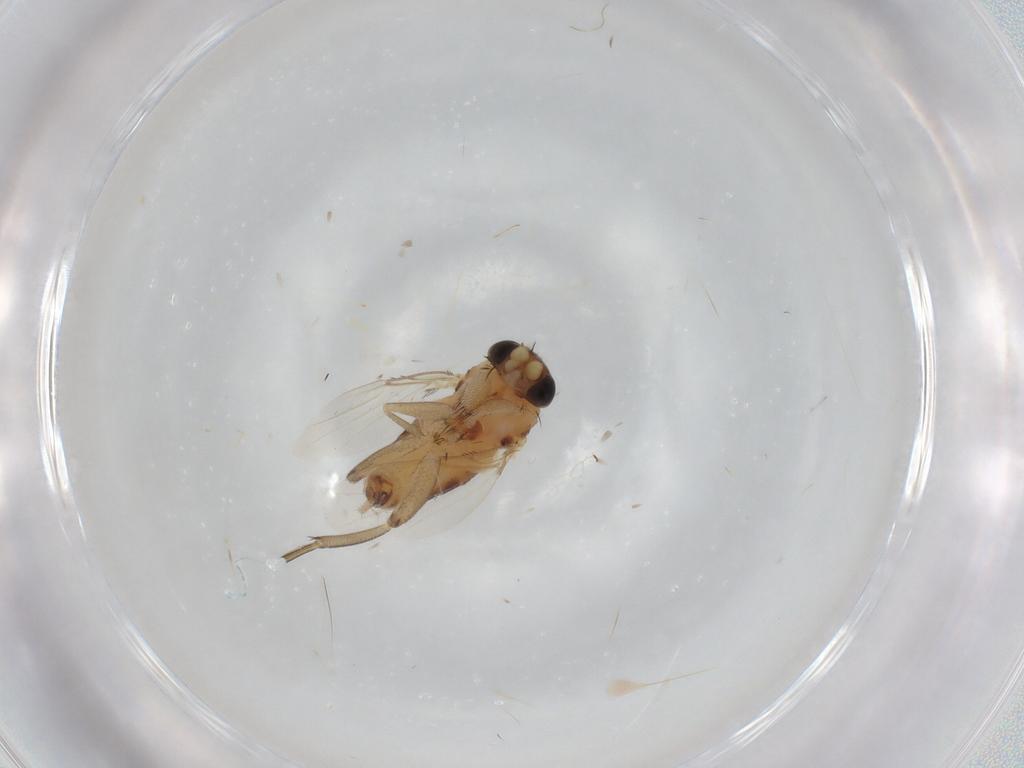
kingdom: Animalia
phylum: Arthropoda
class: Insecta
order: Diptera
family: Phoridae
